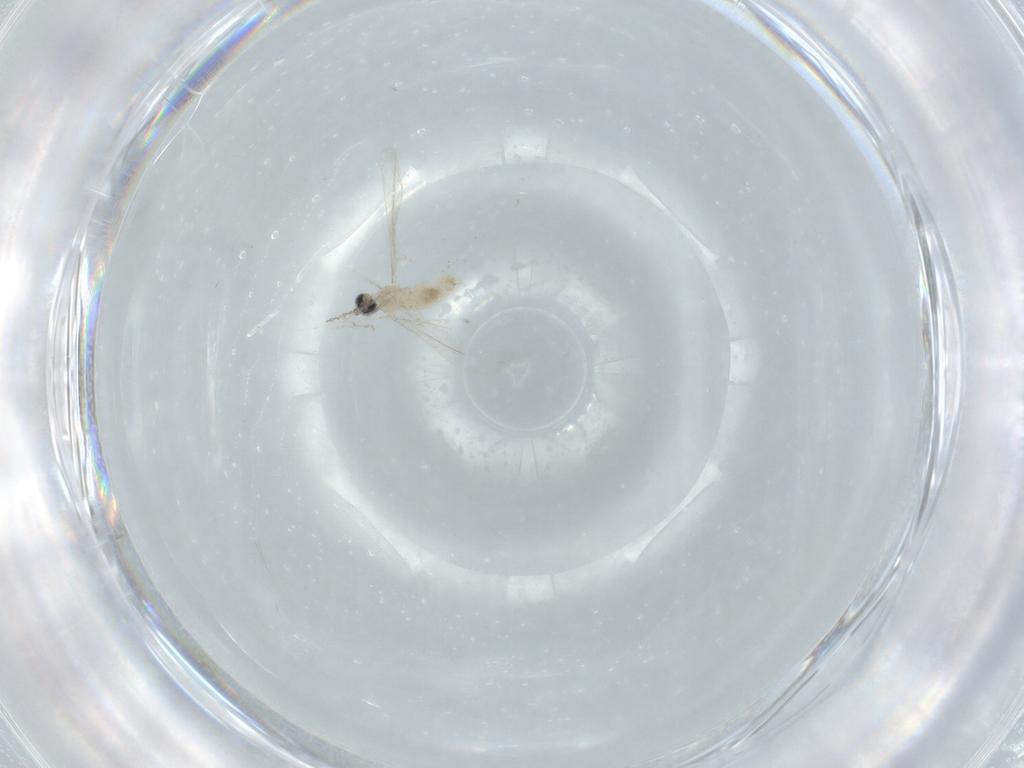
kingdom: Animalia
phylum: Arthropoda
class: Insecta
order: Diptera
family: Cecidomyiidae
